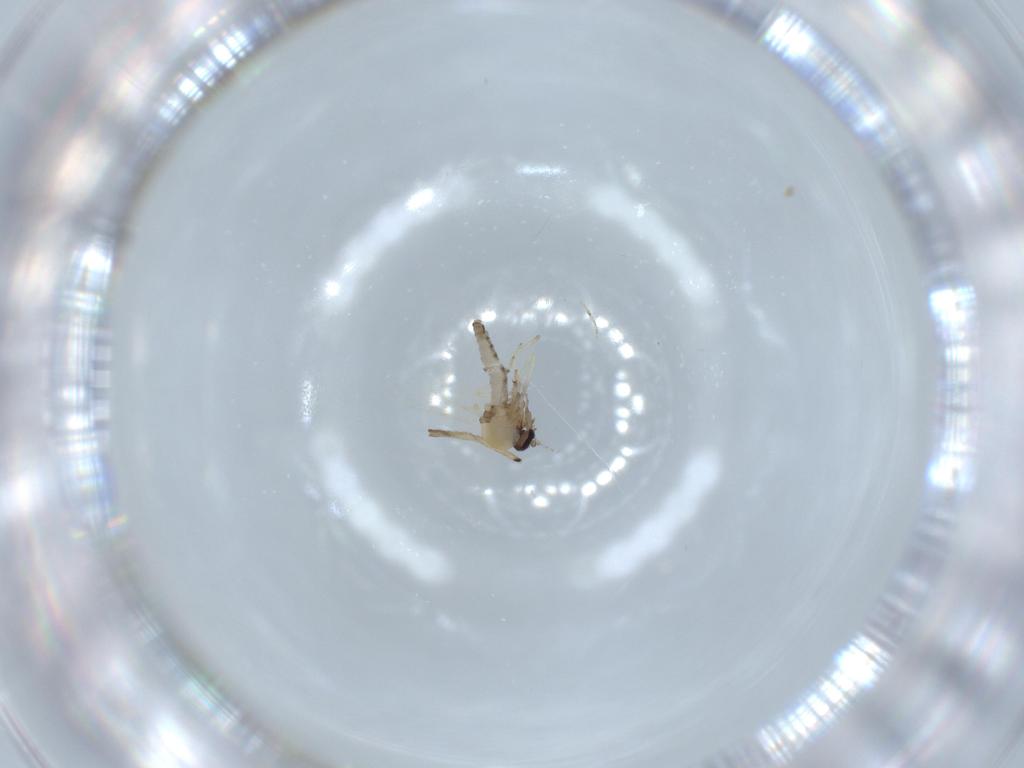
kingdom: Animalia
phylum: Arthropoda
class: Insecta
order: Diptera
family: Ceratopogonidae
